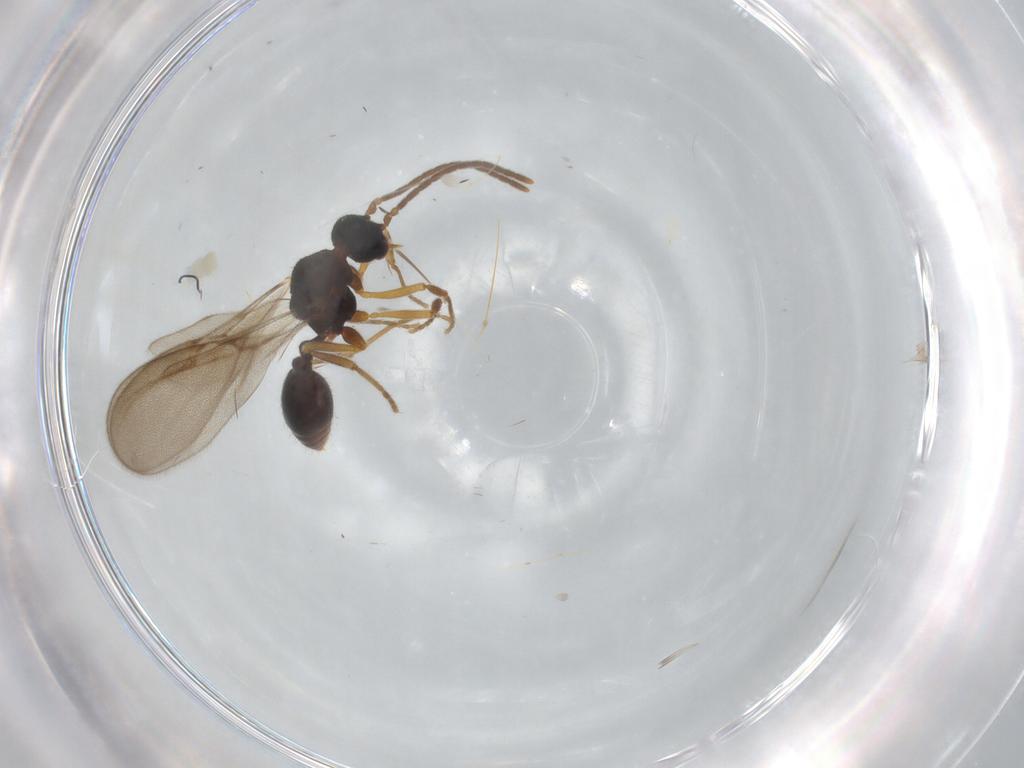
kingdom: Animalia
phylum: Arthropoda
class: Insecta
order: Hymenoptera
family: Formicidae
